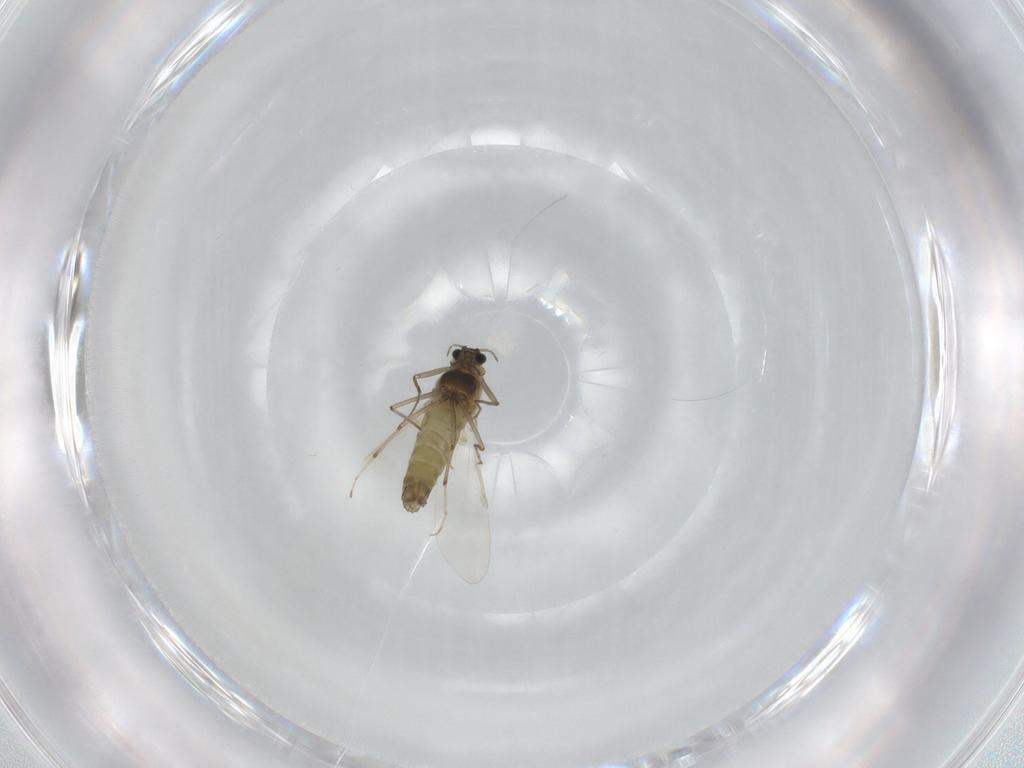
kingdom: Animalia
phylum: Arthropoda
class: Insecta
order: Diptera
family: Chironomidae
